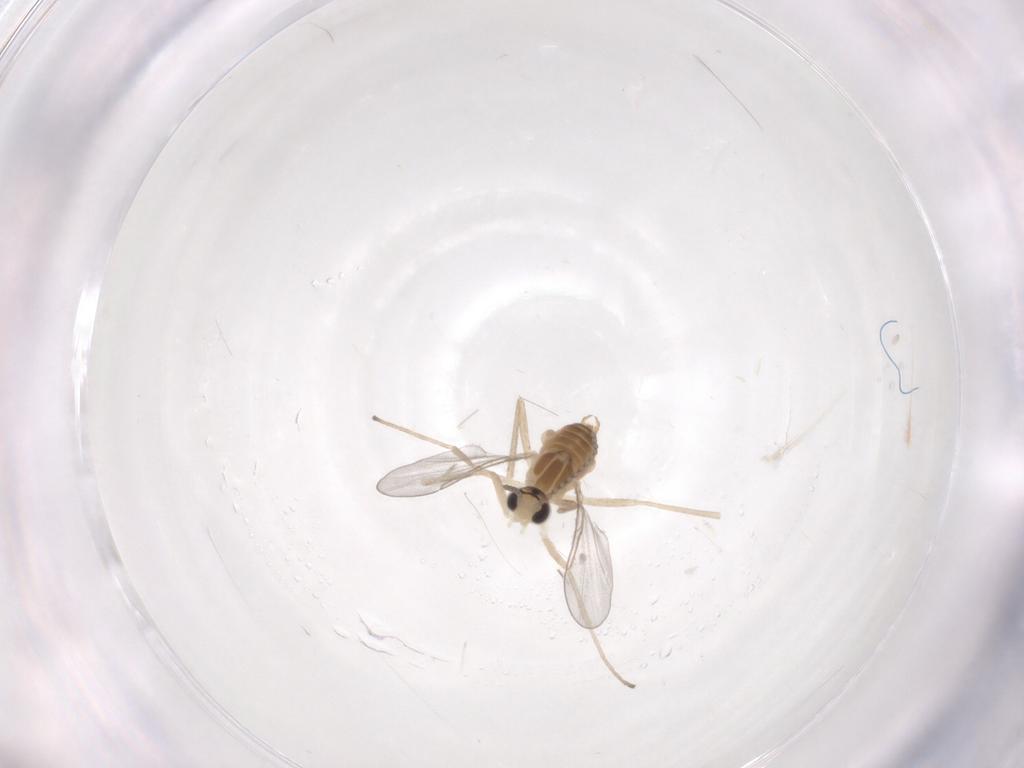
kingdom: Animalia
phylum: Arthropoda
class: Insecta
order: Diptera
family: Cecidomyiidae
